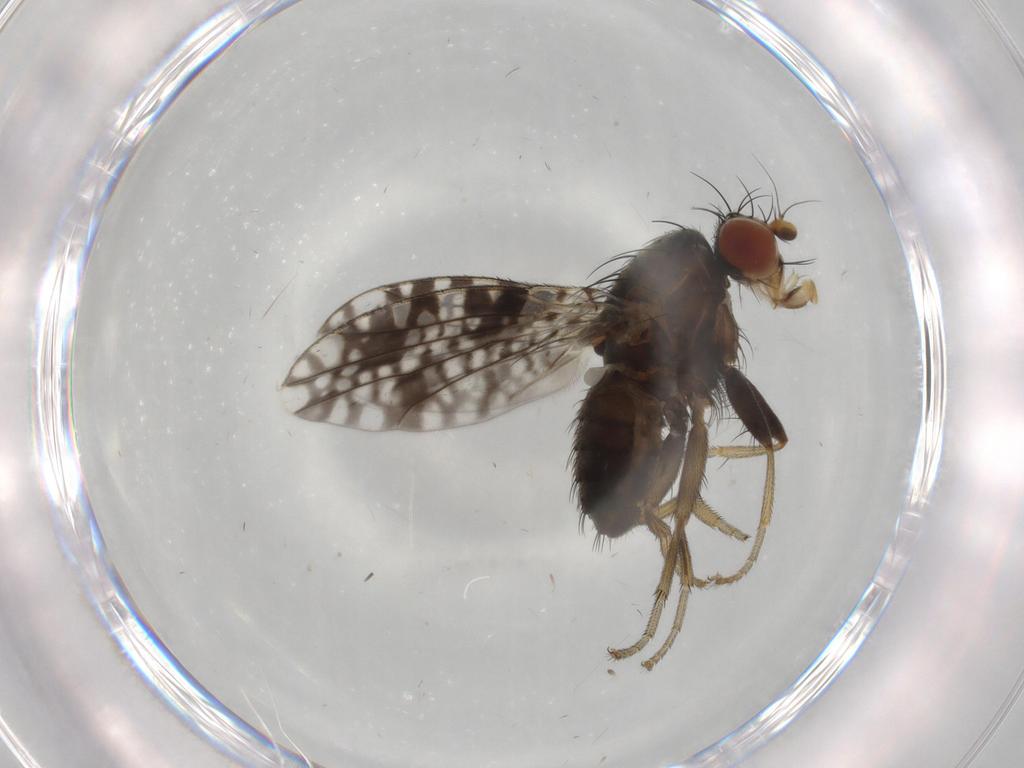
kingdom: Animalia
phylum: Arthropoda
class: Insecta
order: Diptera
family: Tephritidae
